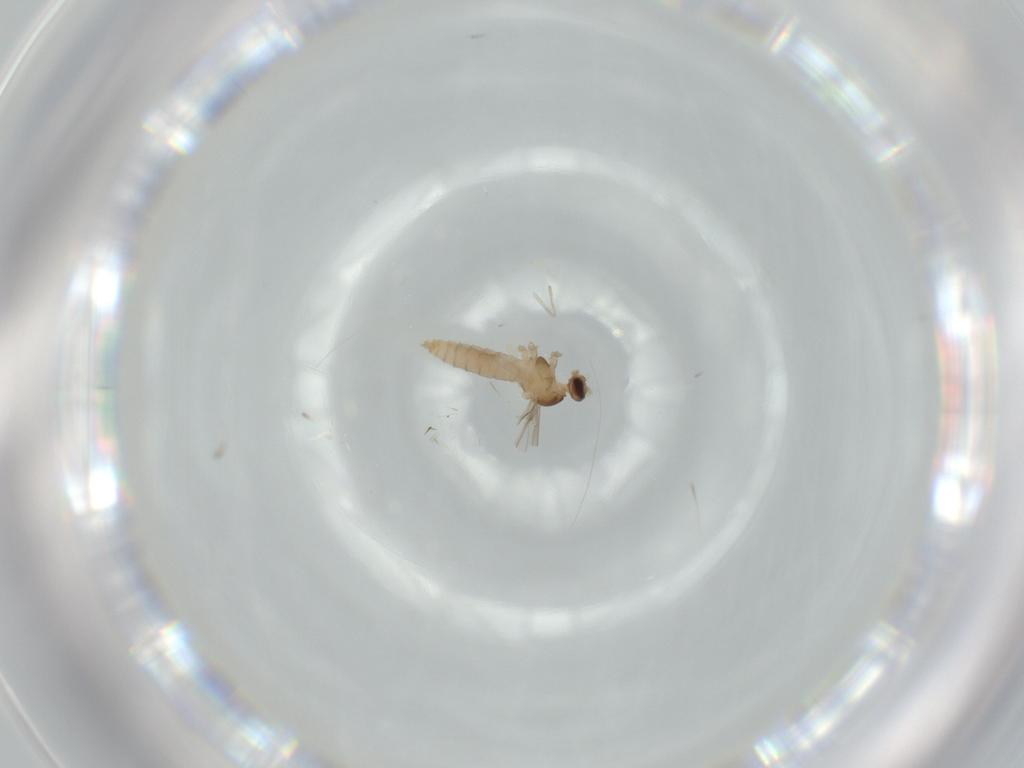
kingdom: Animalia
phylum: Arthropoda
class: Insecta
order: Diptera
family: Cecidomyiidae
